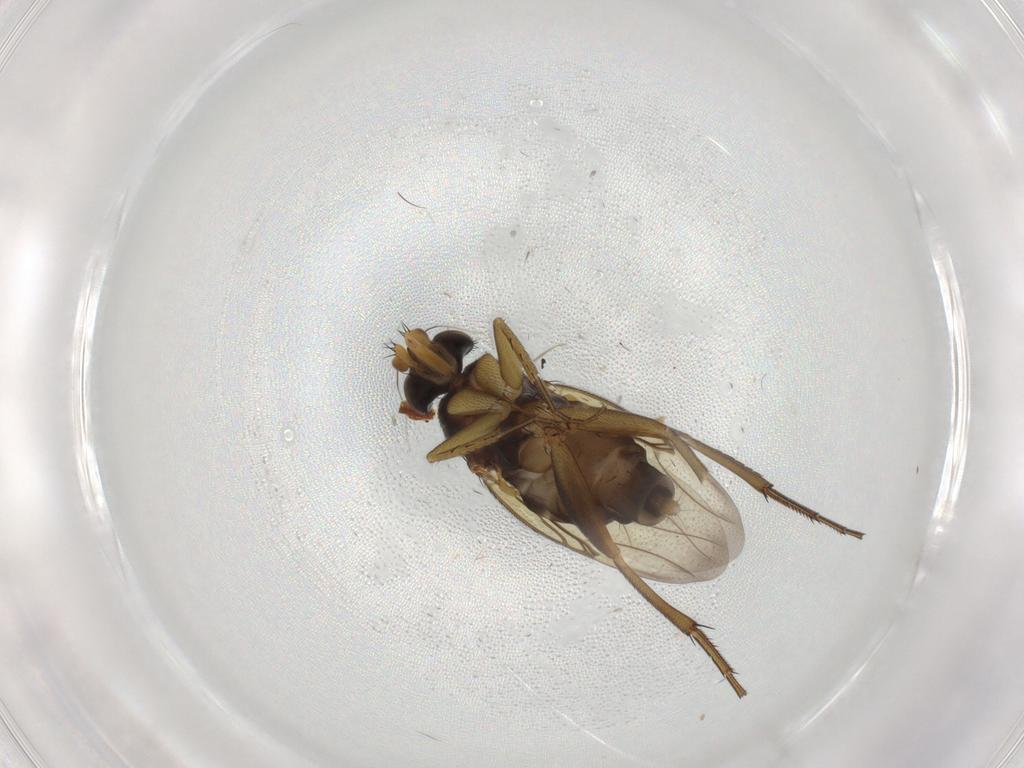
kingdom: Animalia
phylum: Arthropoda
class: Insecta
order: Diptera
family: Phoridae
